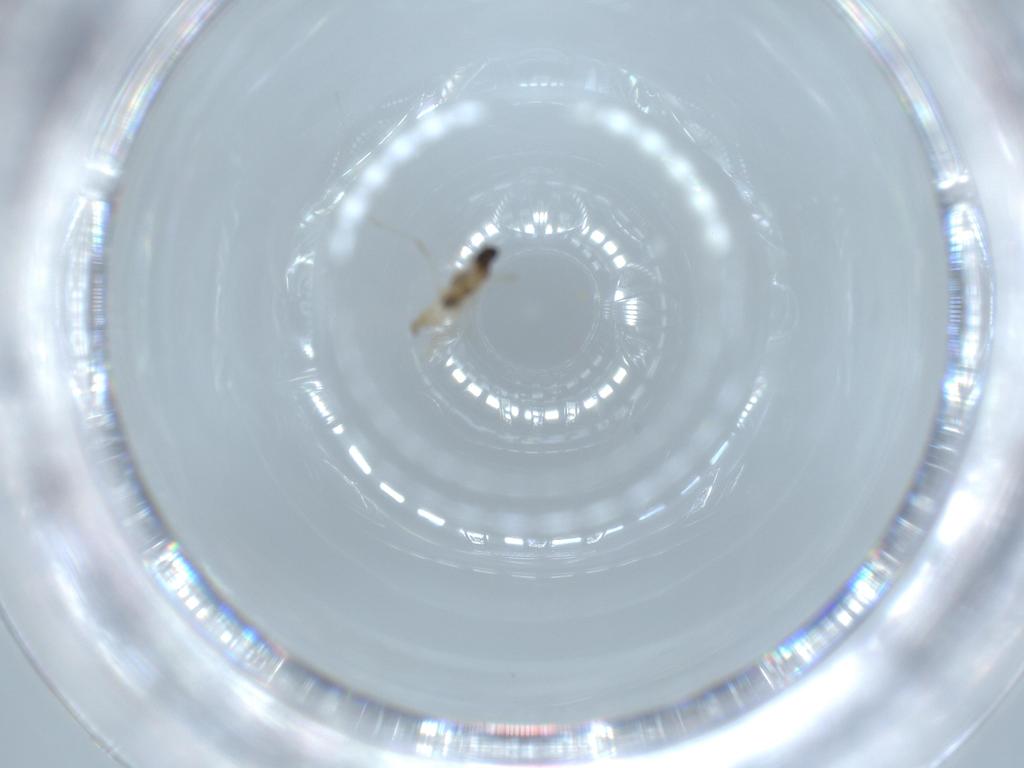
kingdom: Animalia
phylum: Arthropoda
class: Insecta
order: Diptera
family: Cecidomyiidae
